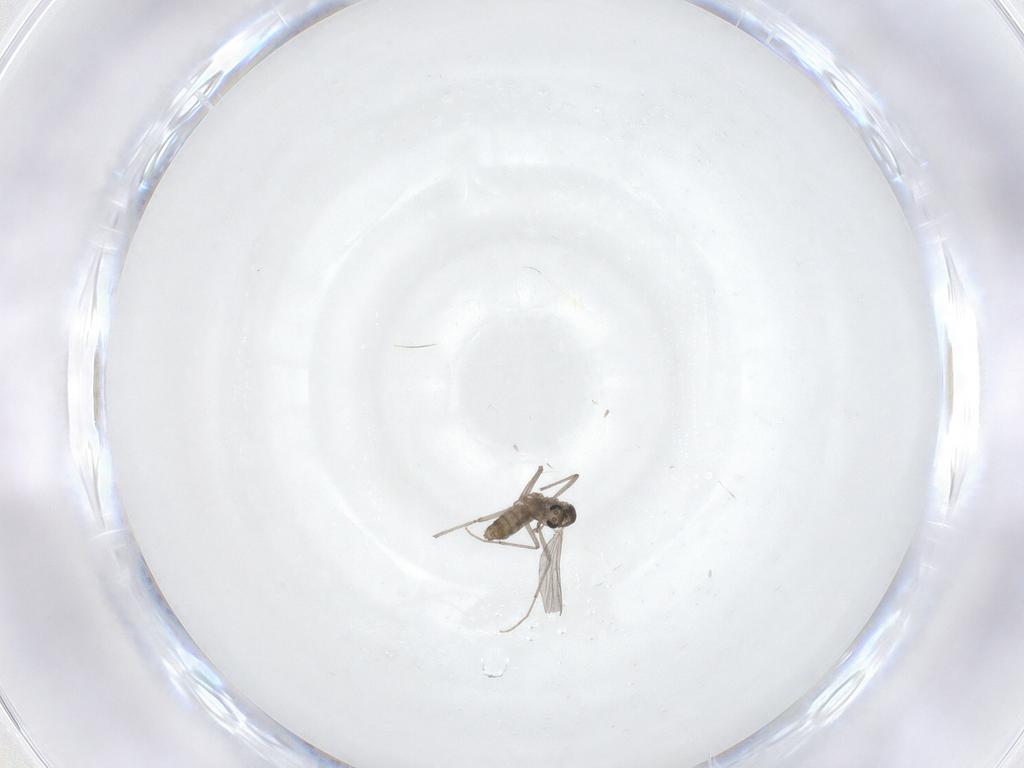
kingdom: Animalia
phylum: Arthropoda
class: Insecta
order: Diptera
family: Chironomidae
